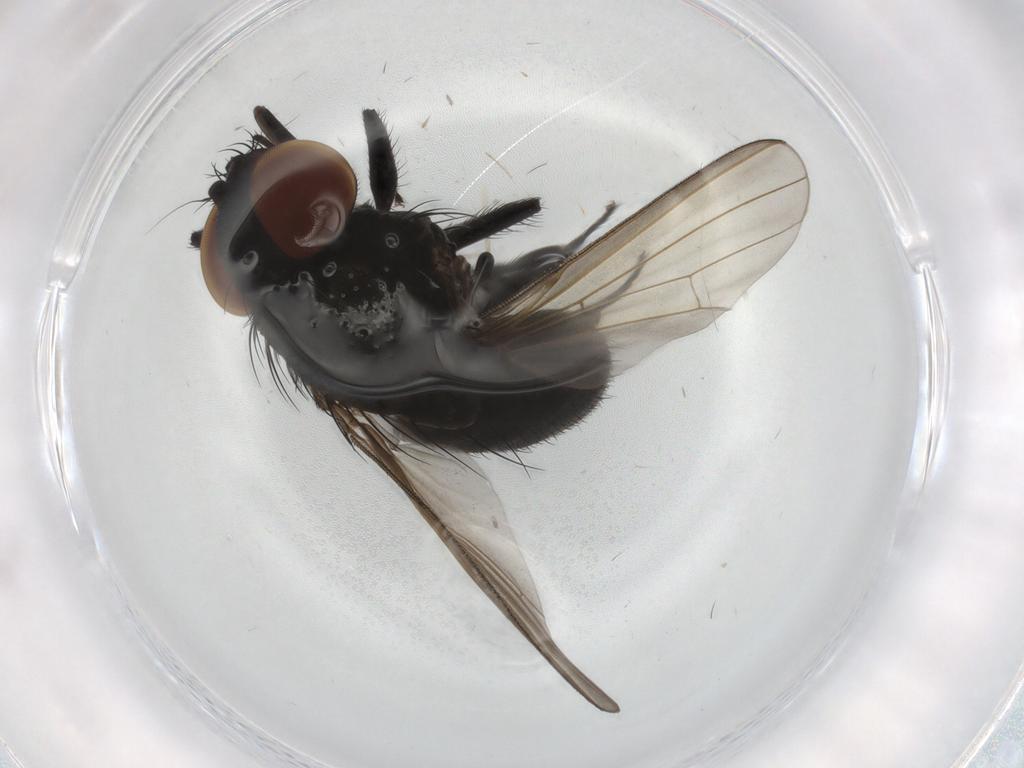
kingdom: Animalia
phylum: Arthropoda
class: Insecta
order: Diptera
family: Milichiidae
